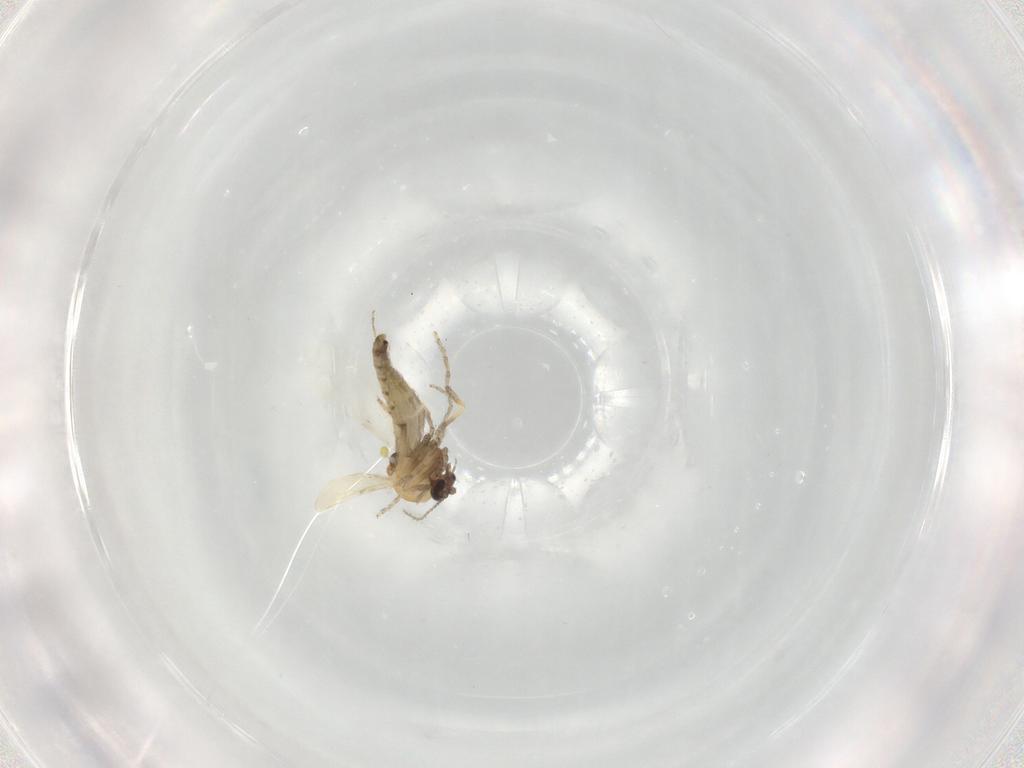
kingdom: Animalia
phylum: Arthropoda
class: Insecta
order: Diptera
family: Ceratopogonidae
